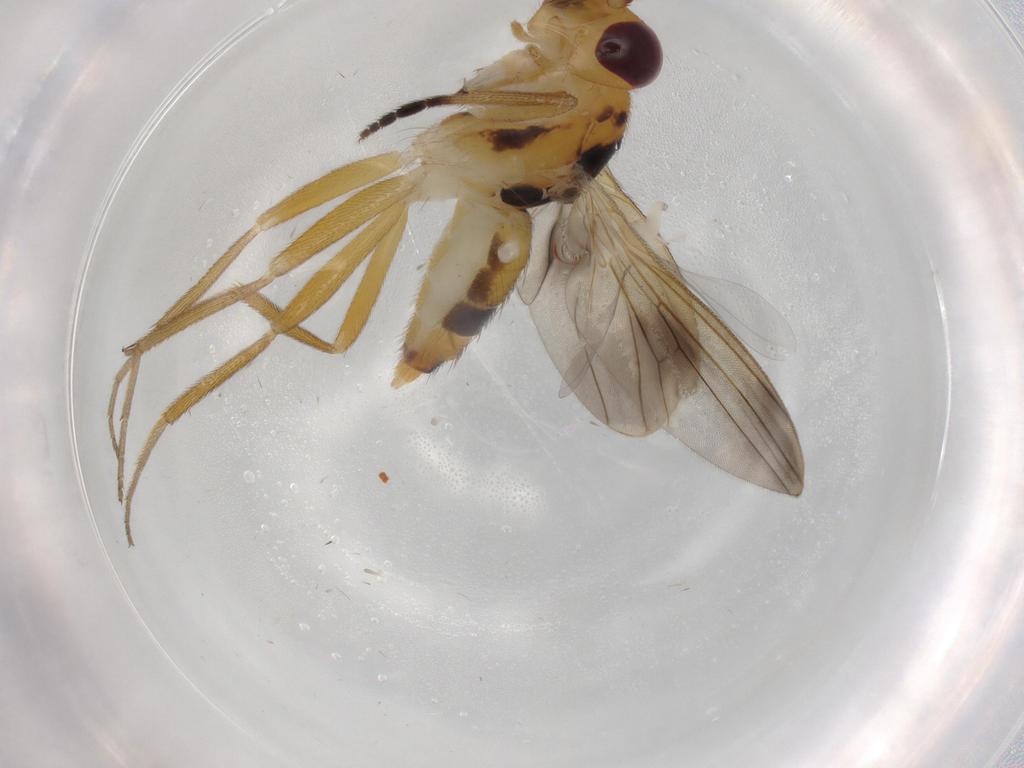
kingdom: Animalia
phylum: Arthropoda
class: Insecta
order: Diptera
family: Clusiidae
